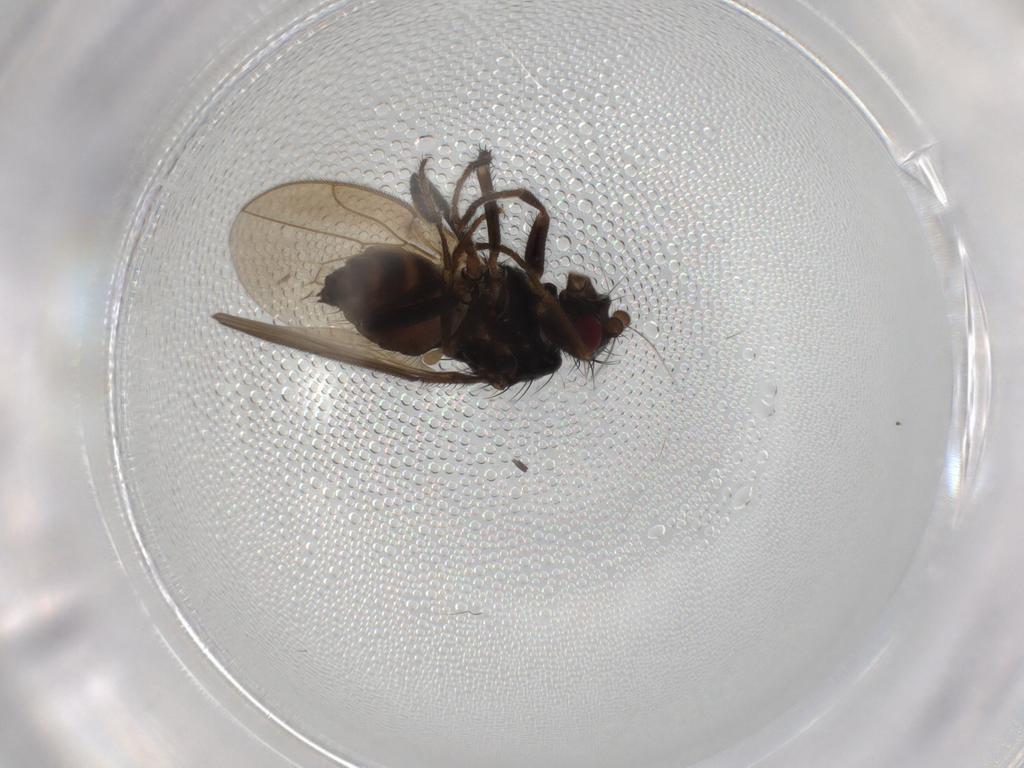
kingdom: Animalia
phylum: Arthropoda
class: Insecta
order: Diptera
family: Sphaeroceridae
